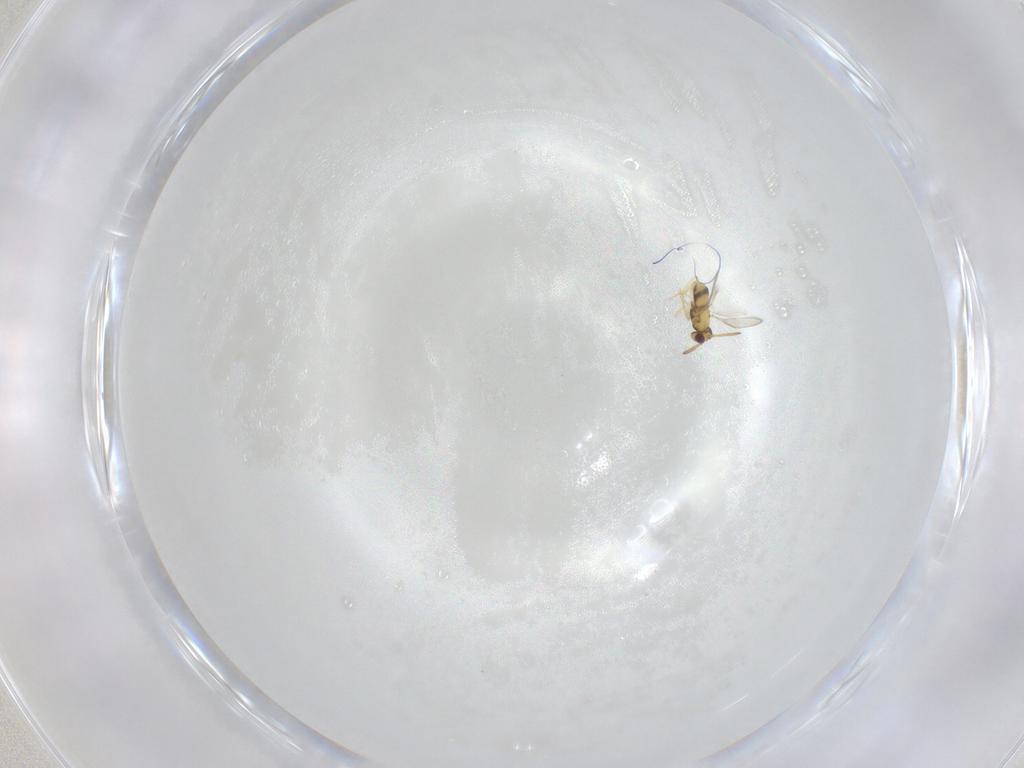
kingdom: Animalia
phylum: Arthropoda
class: Insecta
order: Hymenoptera
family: Aphelinidae
